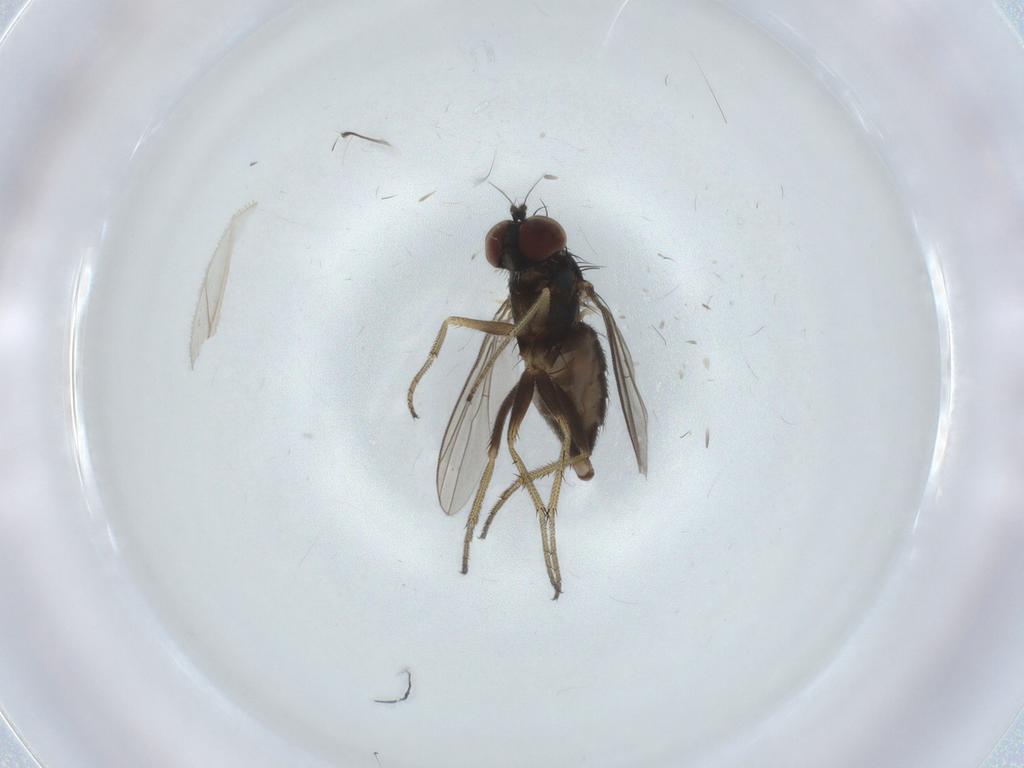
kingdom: Animalia
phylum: Arthropoda
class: Insecta
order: Diptera
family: Chironomidae
